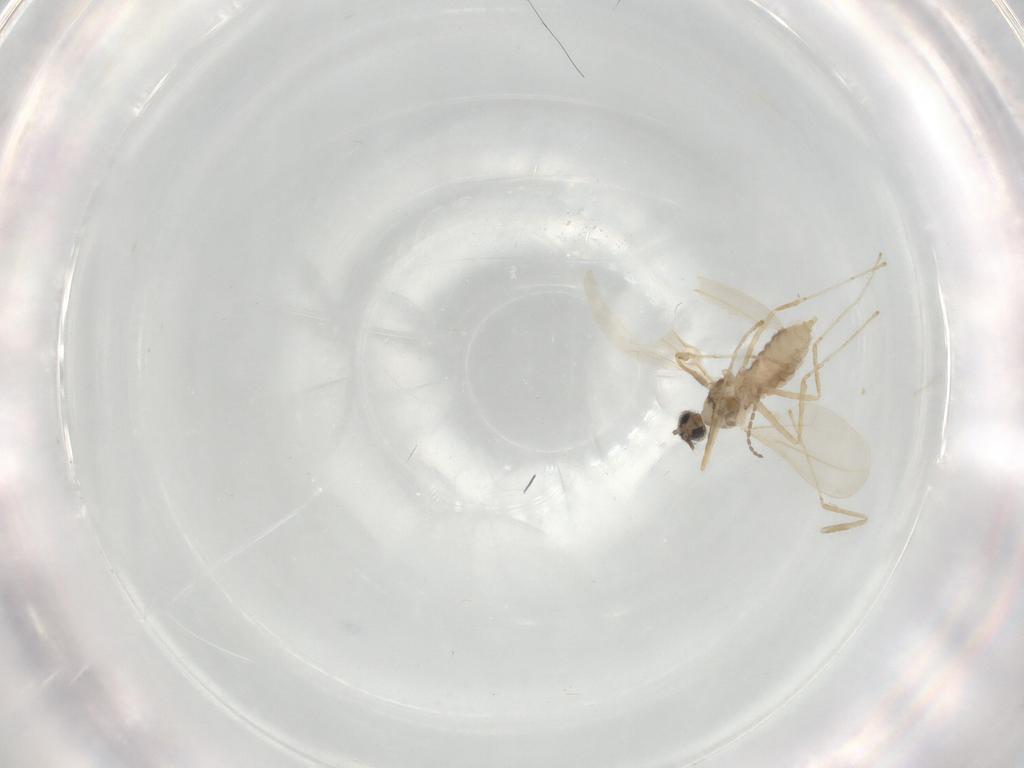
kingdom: Animalia
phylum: Arthropoda
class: Insecta
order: Diptera
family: Cecidomyiidae
